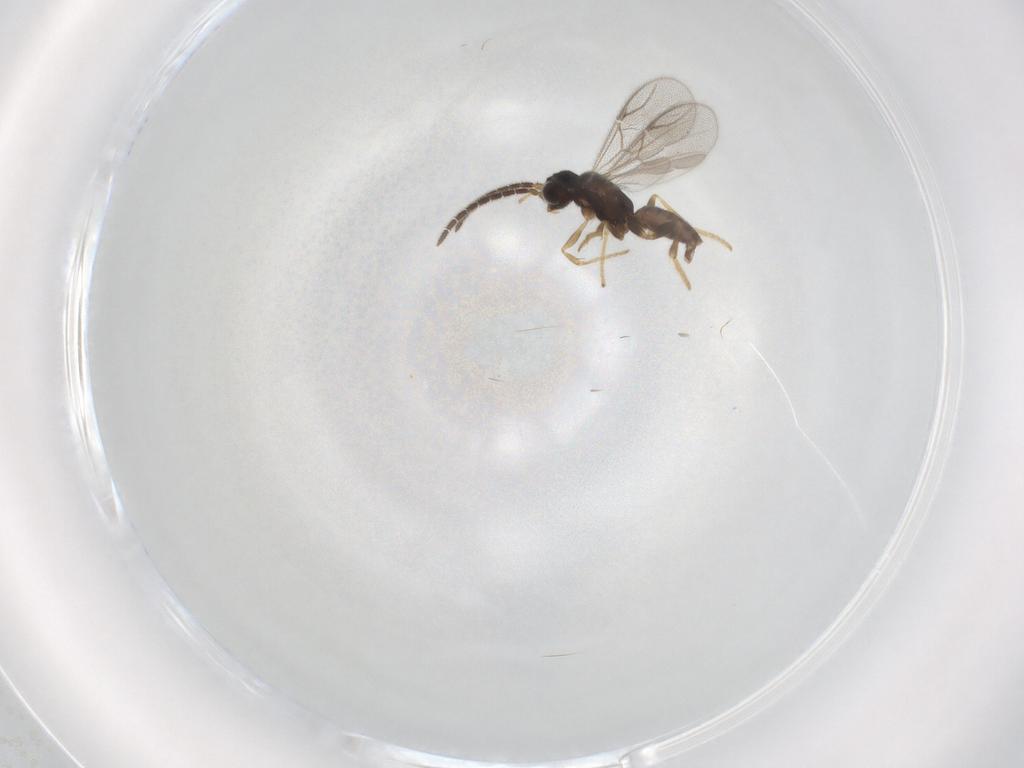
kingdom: Animalia
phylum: Arthropoda
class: Insecta
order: Hymenoptera
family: Dryinidae
